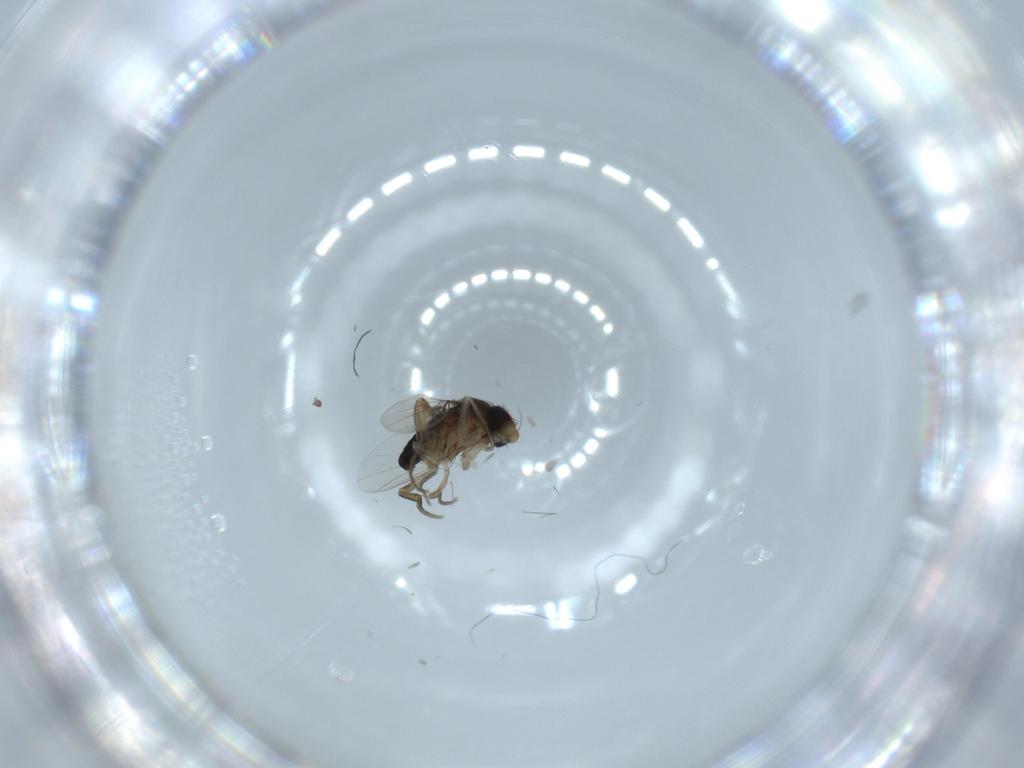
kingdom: Animalia
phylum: Arthropoda
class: Insecta
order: Diptera
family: Phoridae
